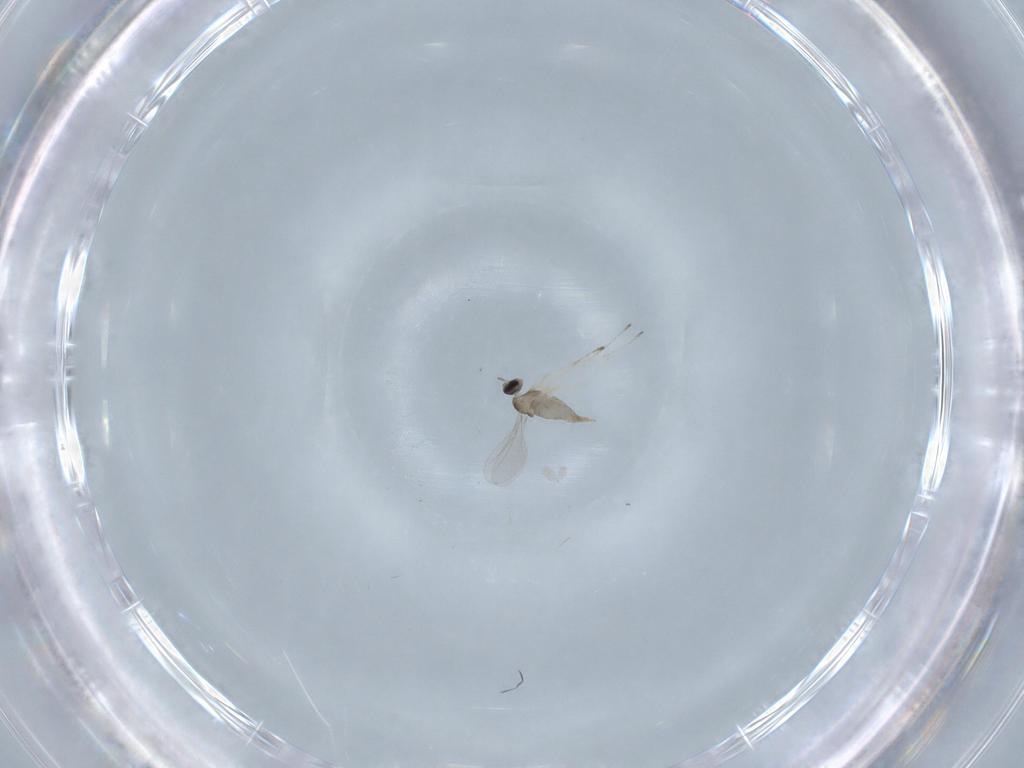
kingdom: Animalia
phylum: Arthropoda
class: Insecta
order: Diptera
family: Cecidomyiidae
